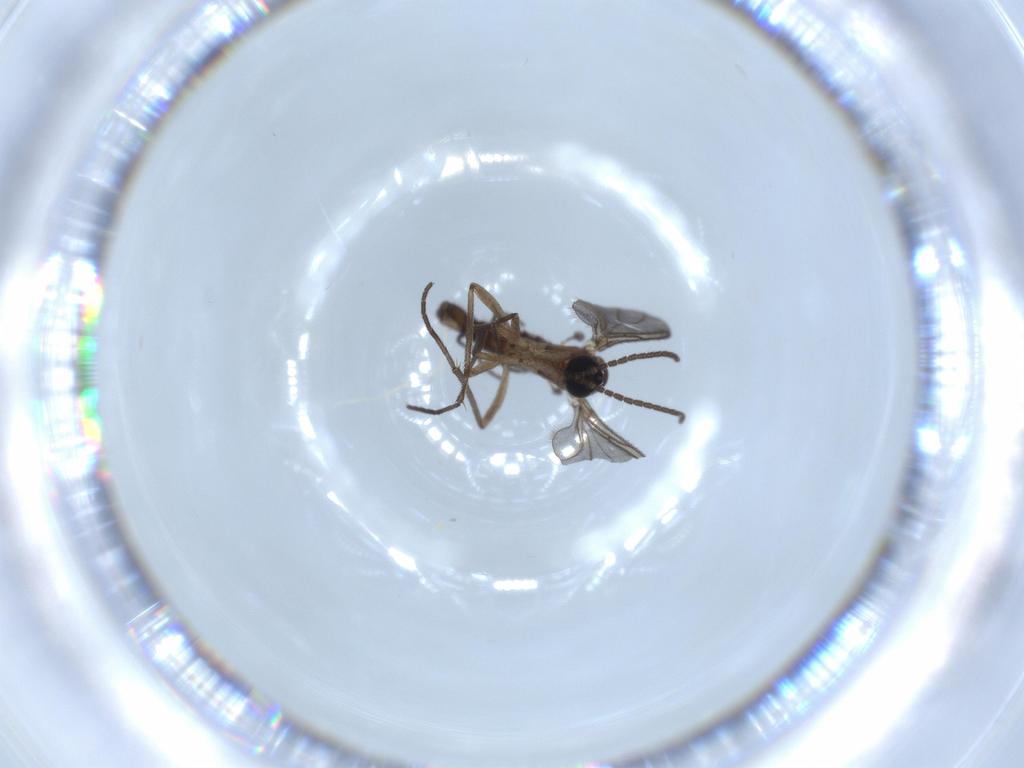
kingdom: Animalia
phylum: Arthropoda
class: Insecta
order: Diptera
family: Sciaridae
